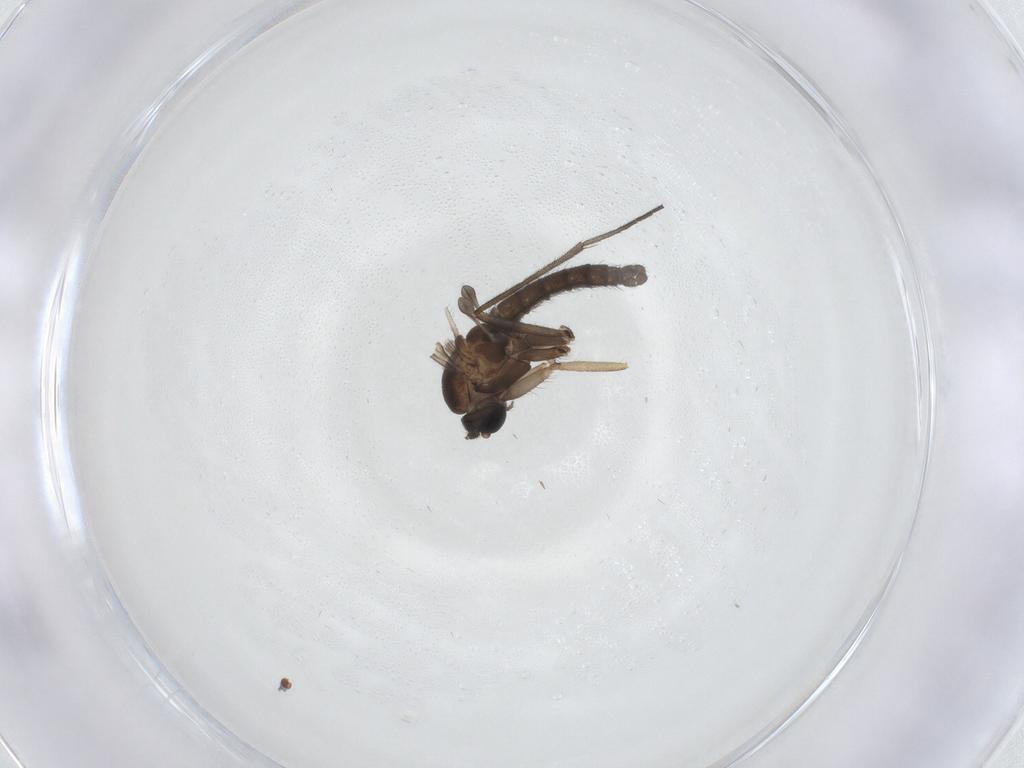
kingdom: Animalia
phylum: Arthropoda
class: Insecta
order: Diptera
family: Sciaridae
